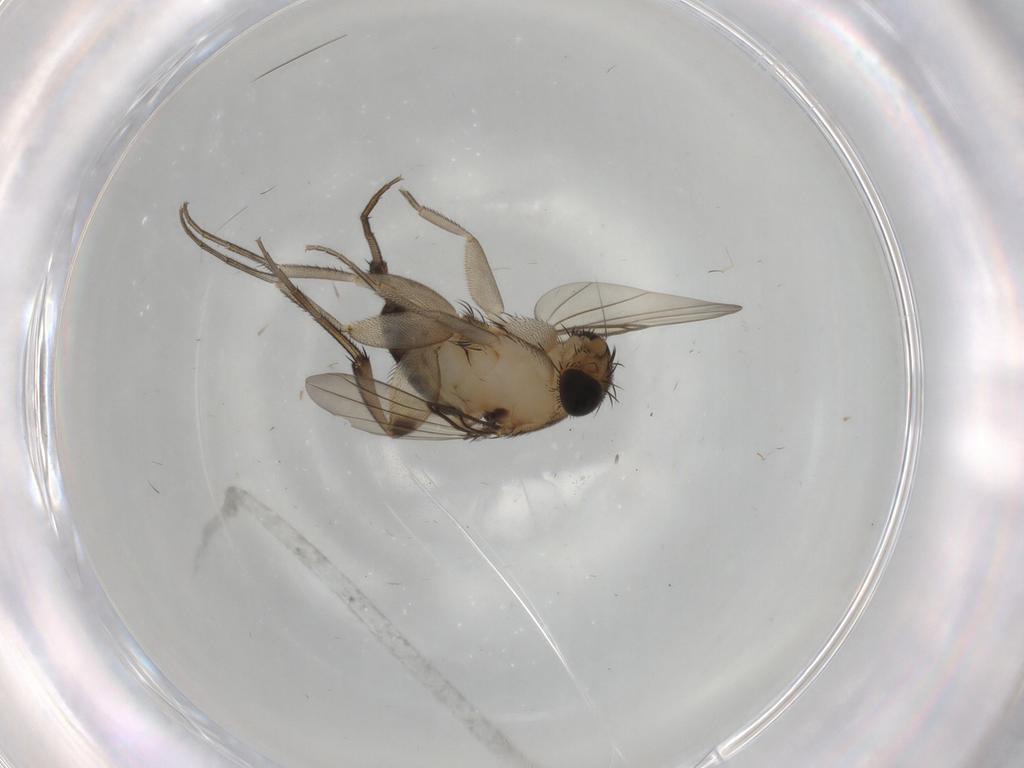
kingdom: Animalia
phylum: Arthropoda
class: Insecta
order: Diptera
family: Phoridae
